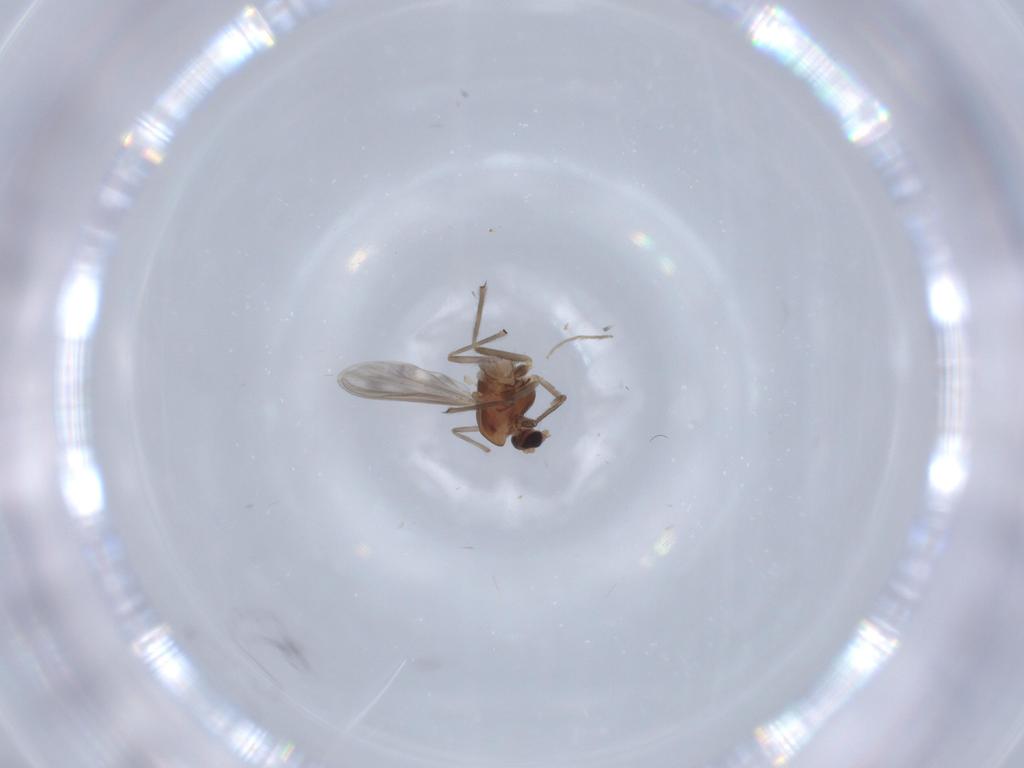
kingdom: Animalia
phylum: Arthropoda
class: Insecta
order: Diptera
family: Chironomidae
